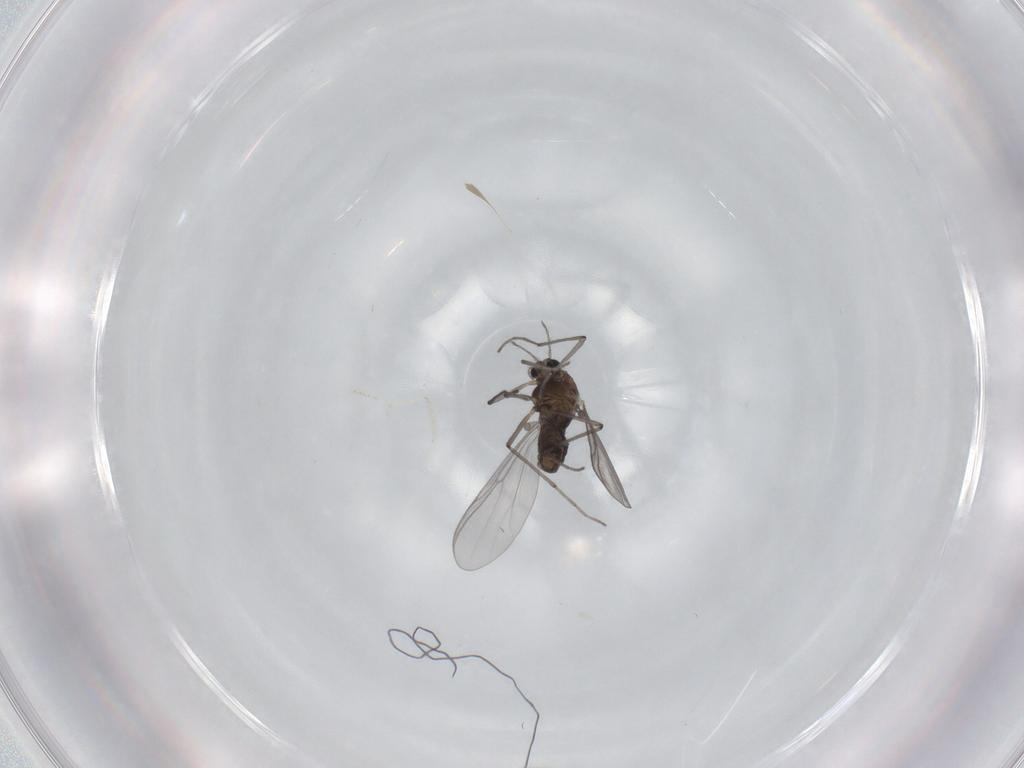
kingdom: Animalia
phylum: Arthropoda
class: Insecta
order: Diptera
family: Chironomidae
